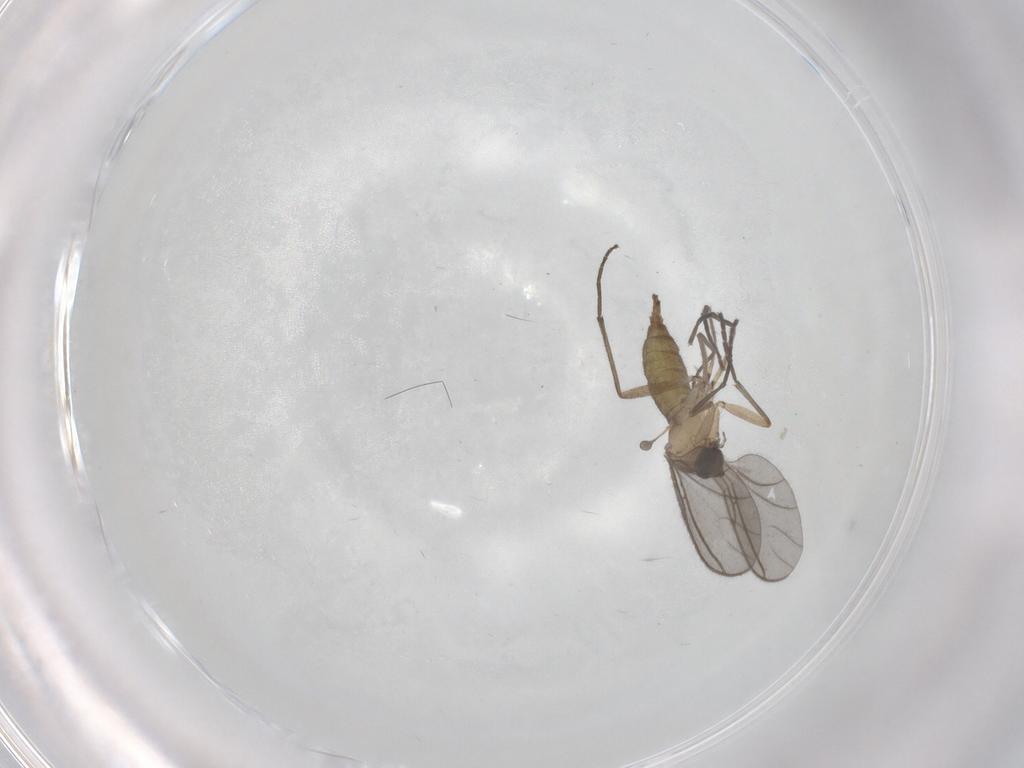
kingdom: Animalia
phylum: Arthropoda
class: Insecta
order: Diptera
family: Sciaridae
